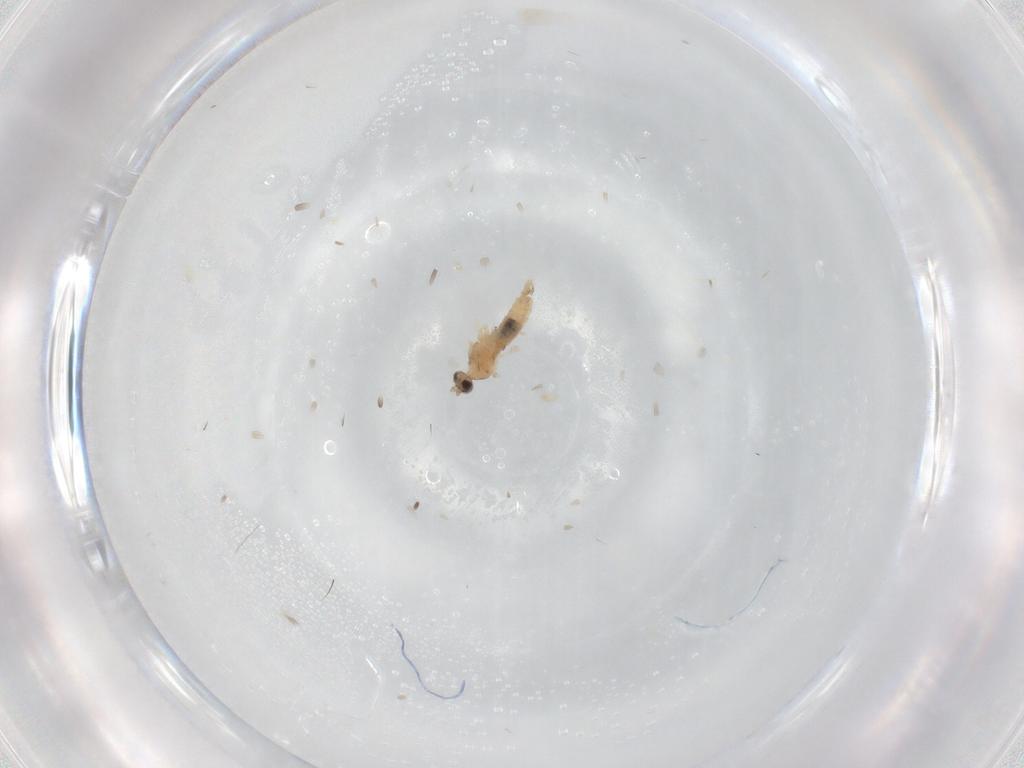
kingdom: Animalia
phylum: Arthropoda
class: Insecta
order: Diptera
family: Cecidomyiidae
